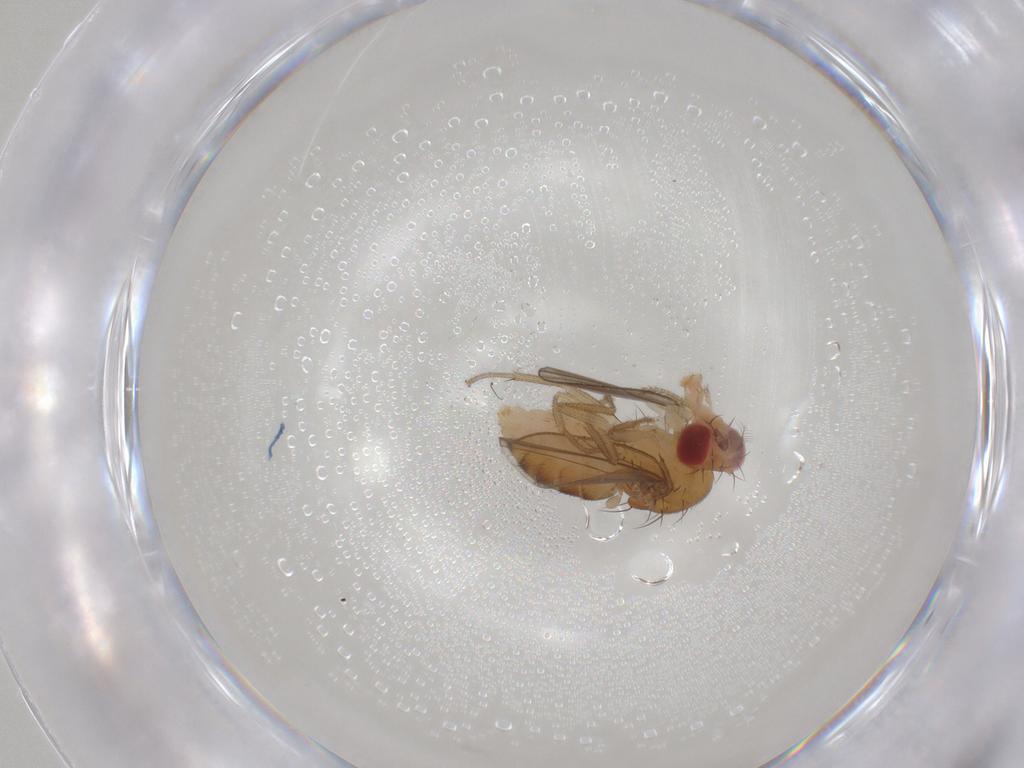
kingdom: Animalia
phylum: Arthropoda
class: Insecta
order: Diptera
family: Drosophilidae
